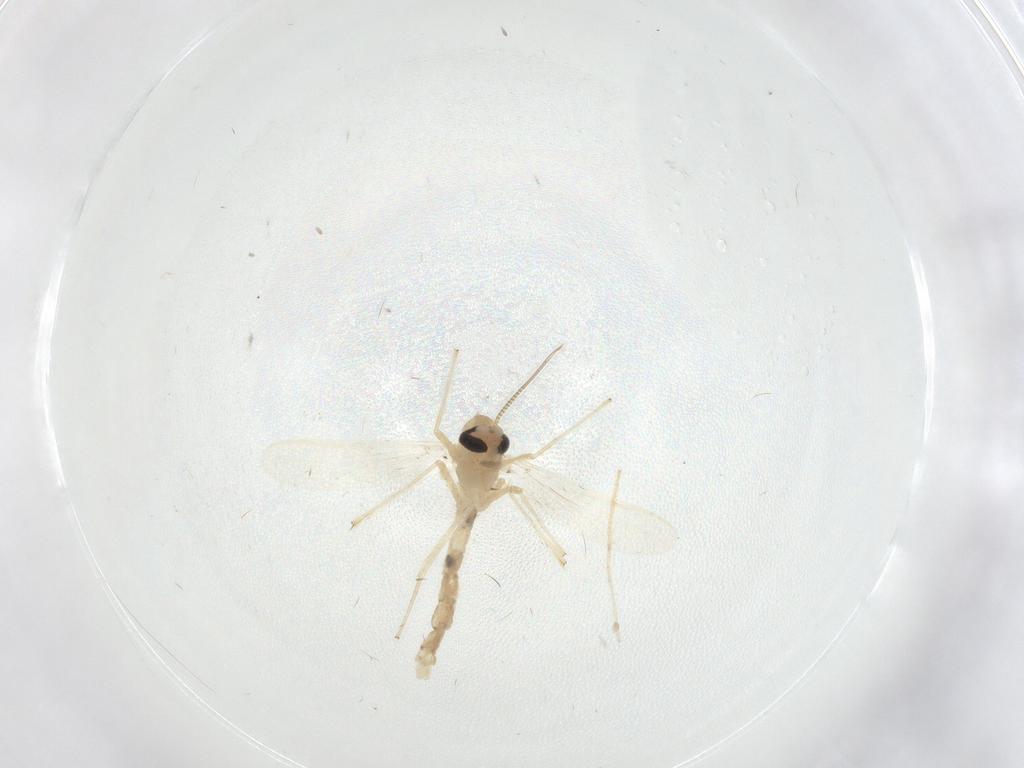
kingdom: Animalia
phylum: Arthropoda
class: Insecta
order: Diptera
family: Chironomidae
